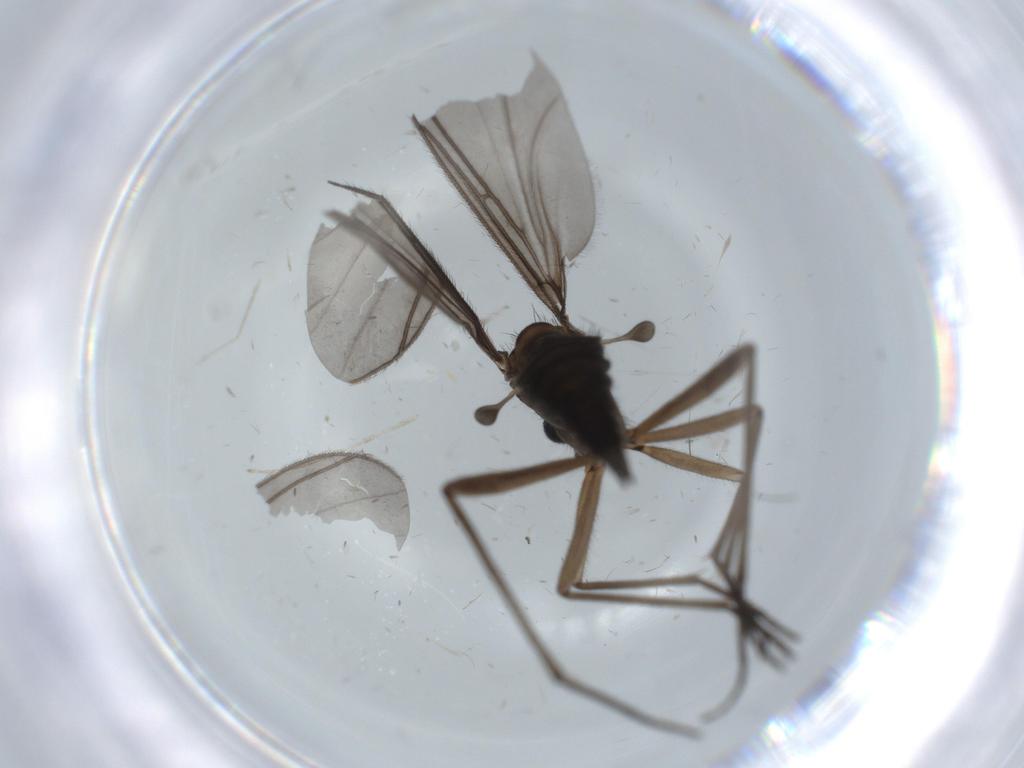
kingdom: Animalia
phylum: Arthropoda
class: Insecta
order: Diptera
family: Sciaridae
